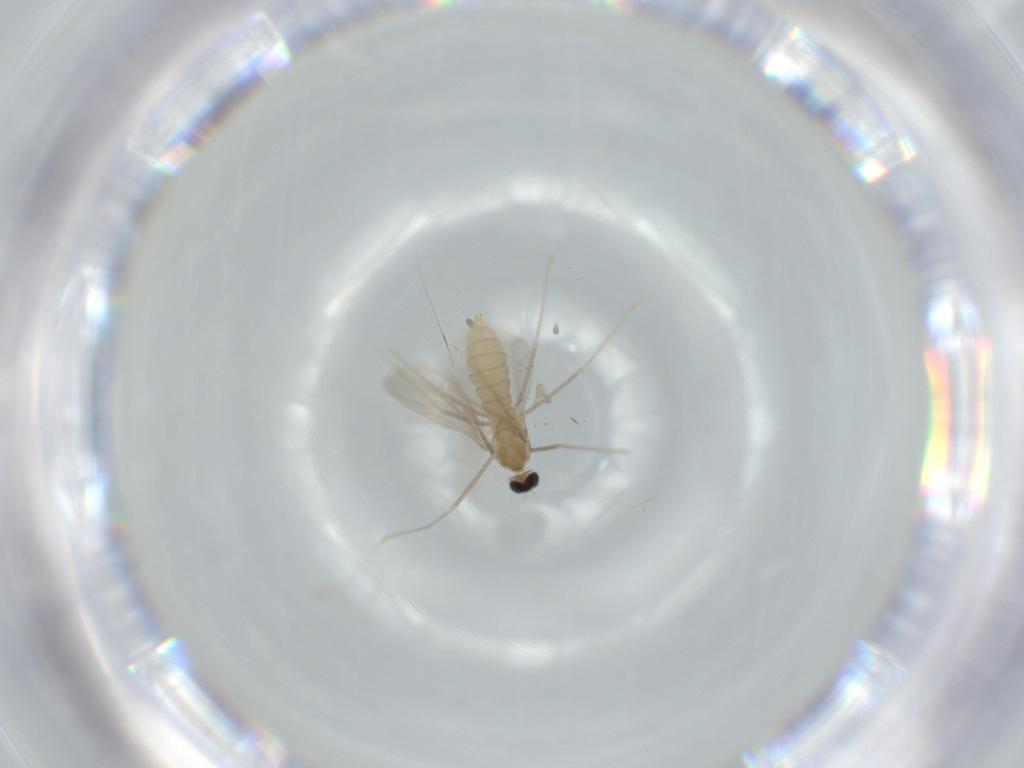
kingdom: Animalia
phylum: Arthropoda
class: Insecta
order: Diptera
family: Cecidomyiidae
